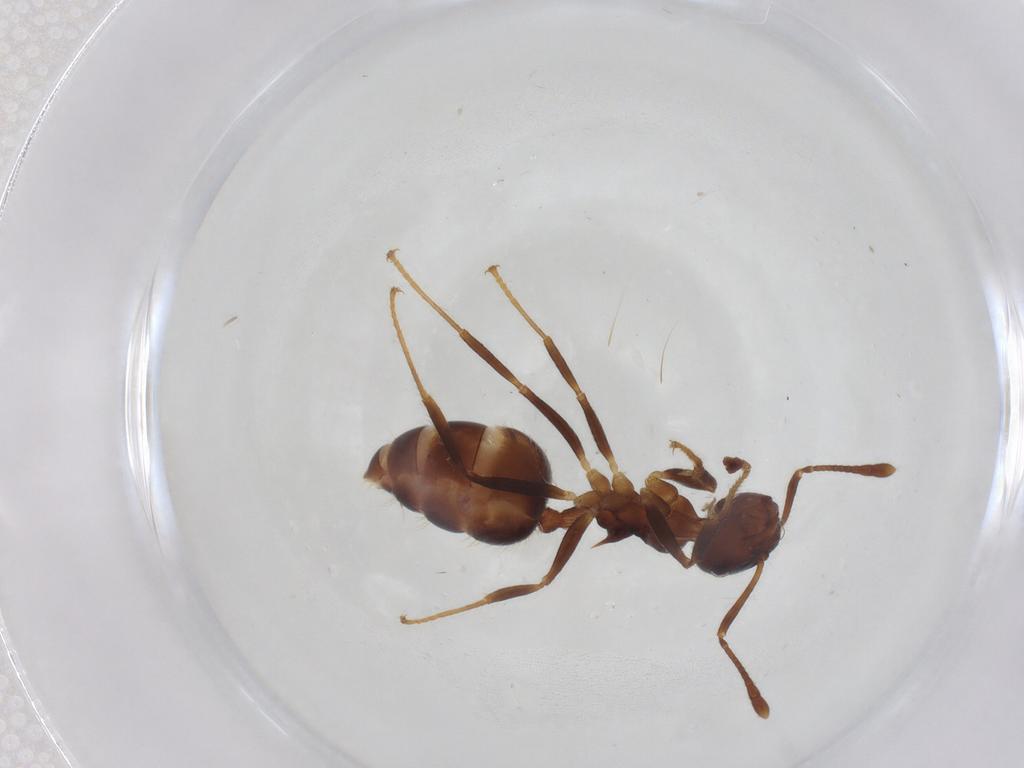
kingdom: Animalia
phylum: Arthropoda
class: Insecta
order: Hymenoptera
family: Formicidae
